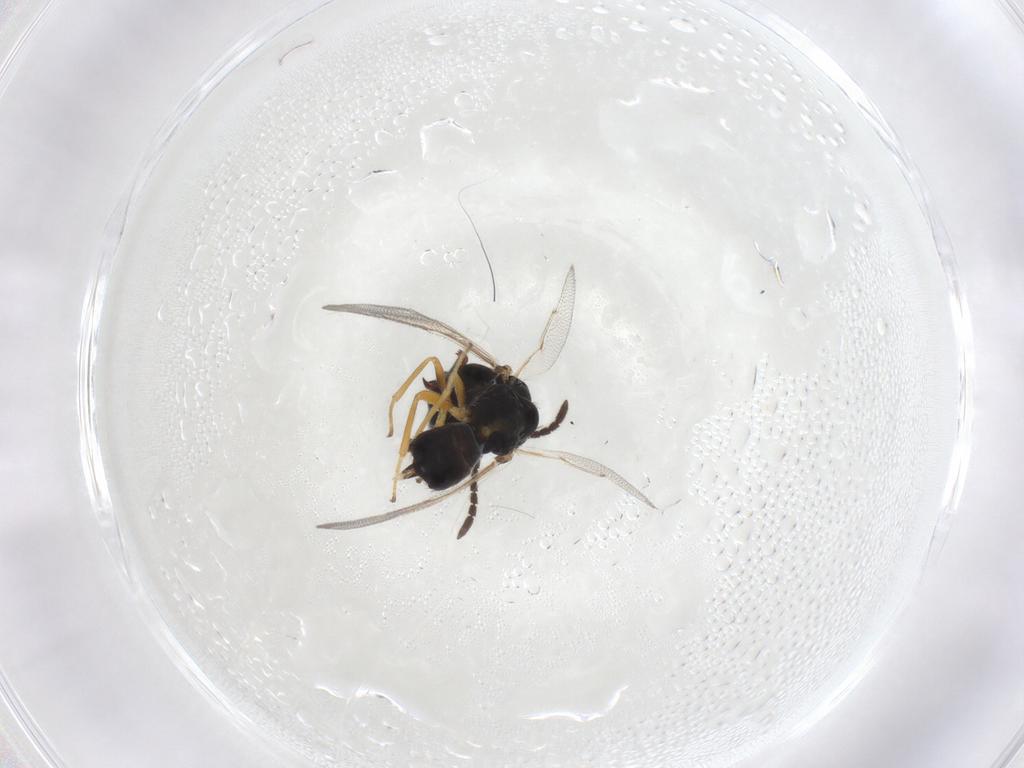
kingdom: Animalia
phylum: Arthropoda
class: Insecta
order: Hymenoptera
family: Pteromalidae
